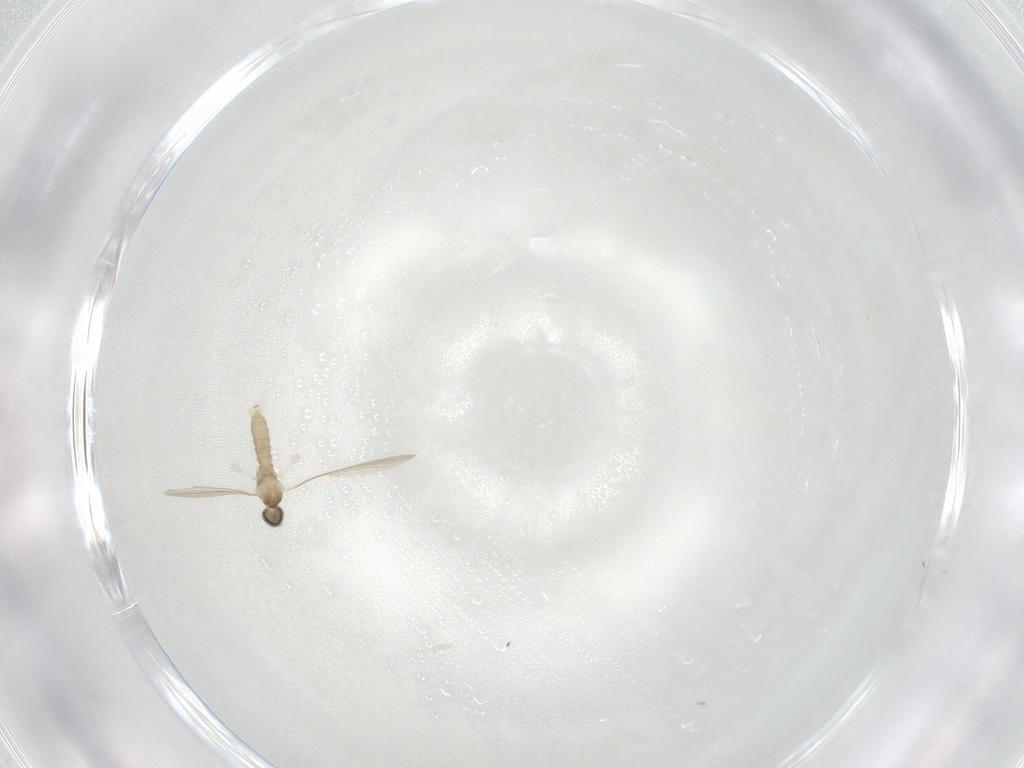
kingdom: Animalia
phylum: Arthropoda
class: Insecta
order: Diptera
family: Cecidomyiidae
